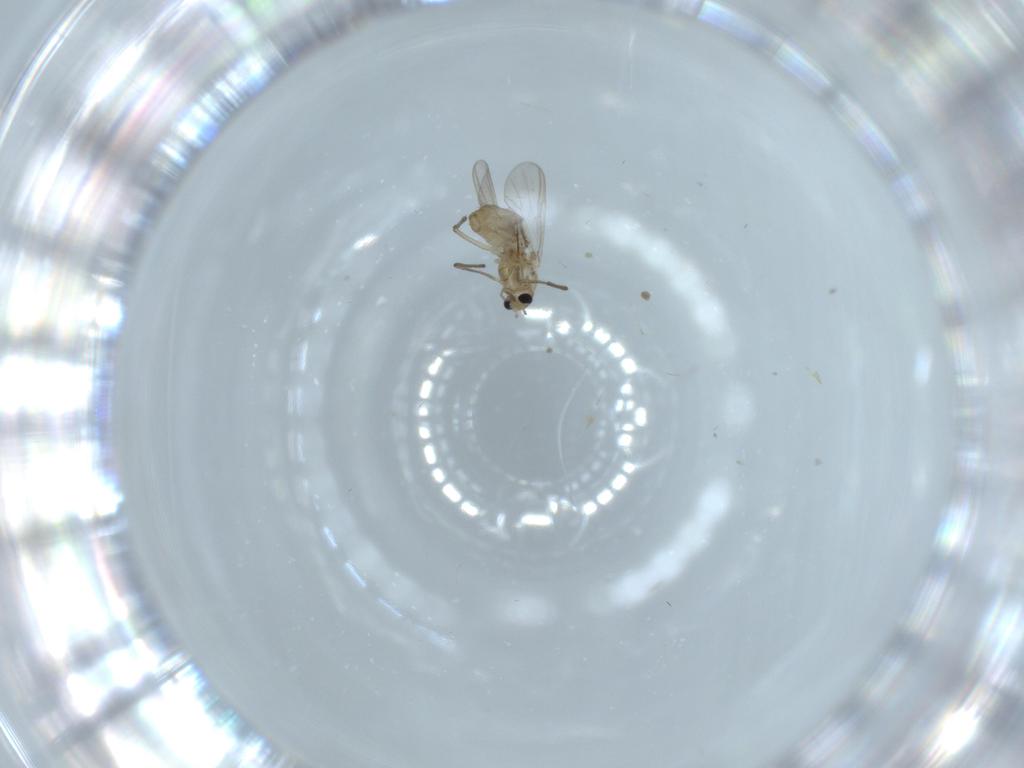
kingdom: Animalia
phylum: Arthropoda
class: Insecta
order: Diptera
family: Chironomidae
